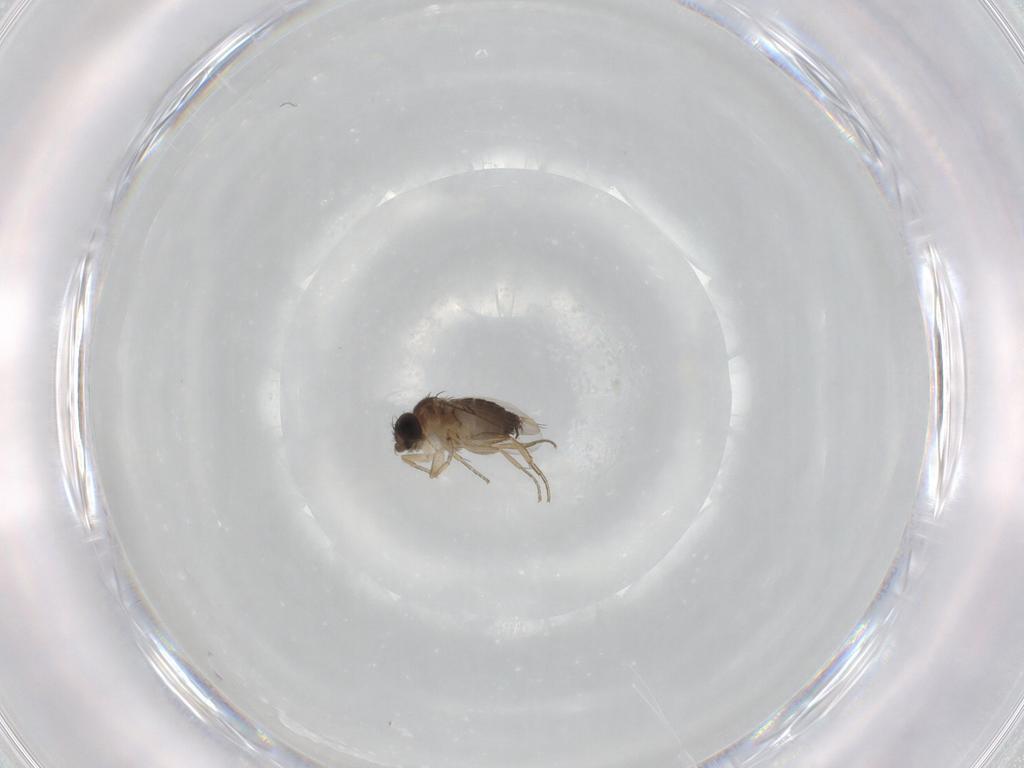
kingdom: Animalia
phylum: Arthropoda
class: Insecta
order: Diptera
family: Phoridae
